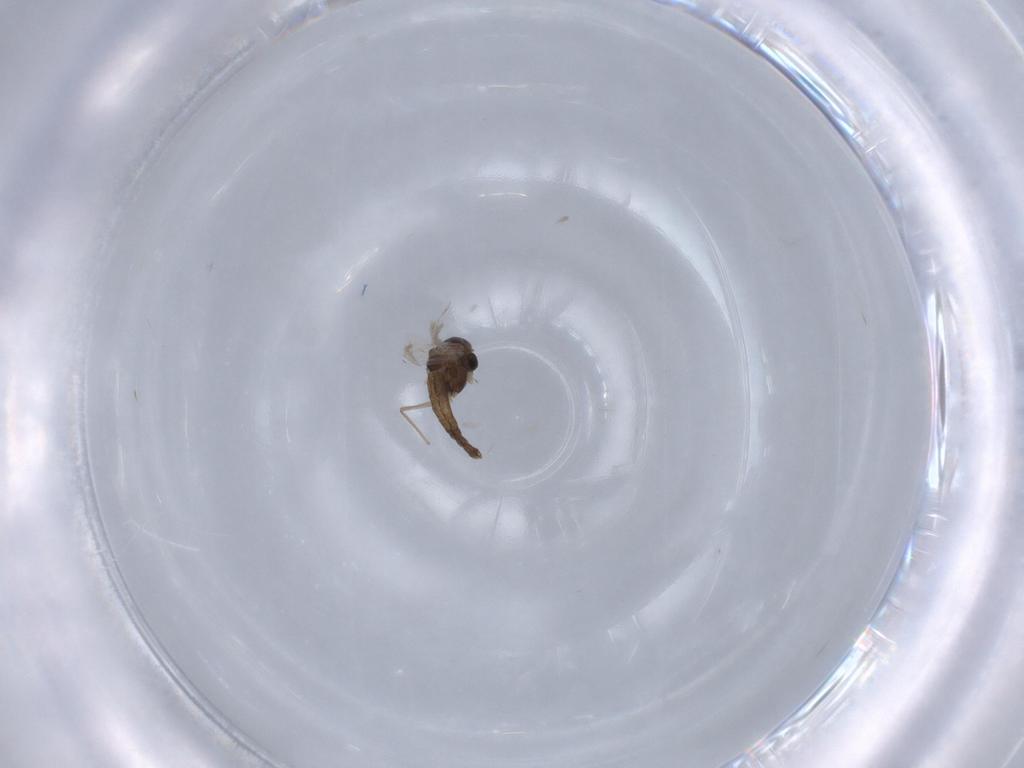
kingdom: Animalia
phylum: Arthropoda
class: Insecta
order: Diptera
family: Chironomidae
